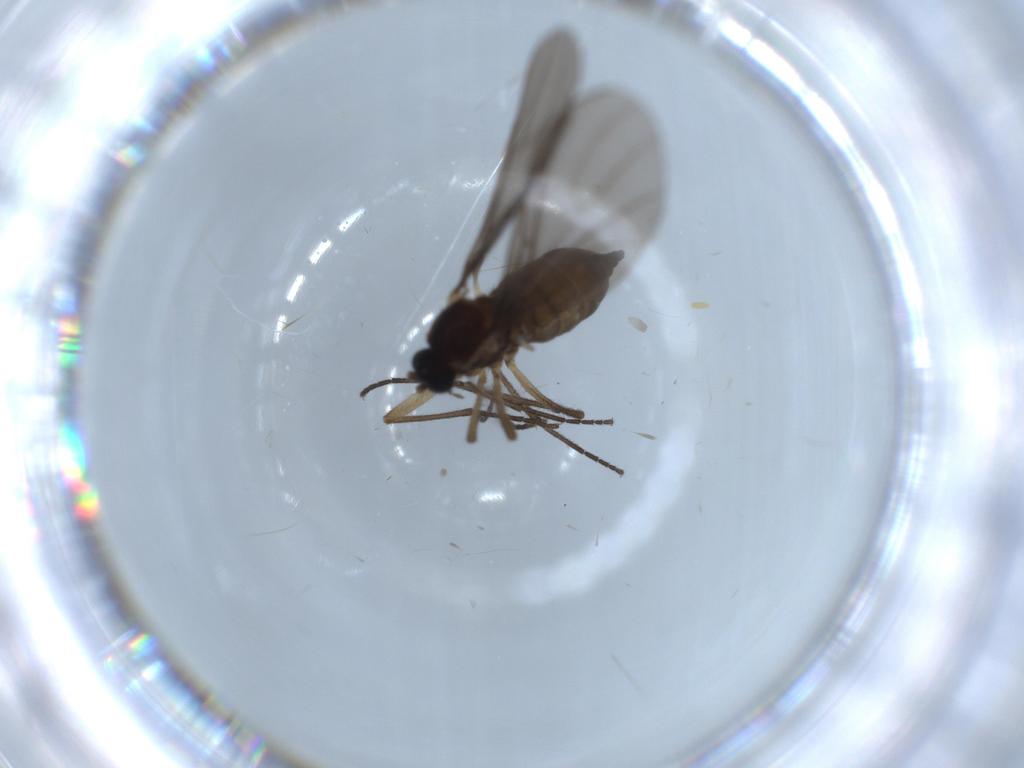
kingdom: Animalia
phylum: Arthropoda
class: Insecta
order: Diptera
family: Sciaridae
